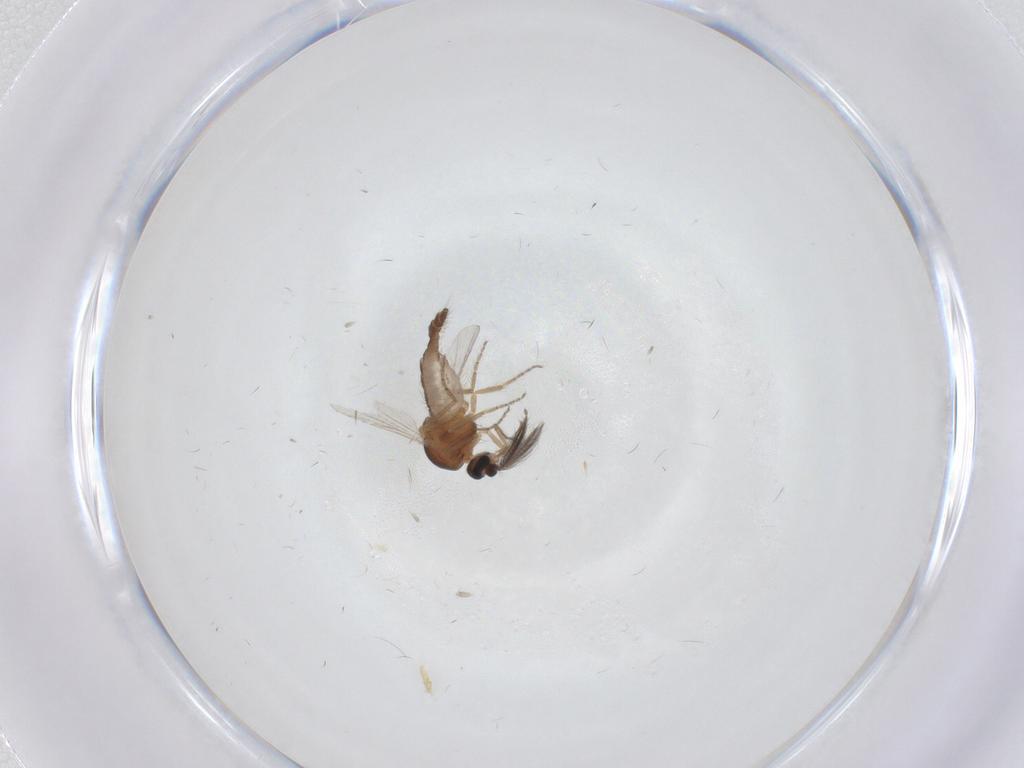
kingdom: Animalia
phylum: Arthropoda
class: Insecta
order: Diptera
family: Ceratopogonidae
